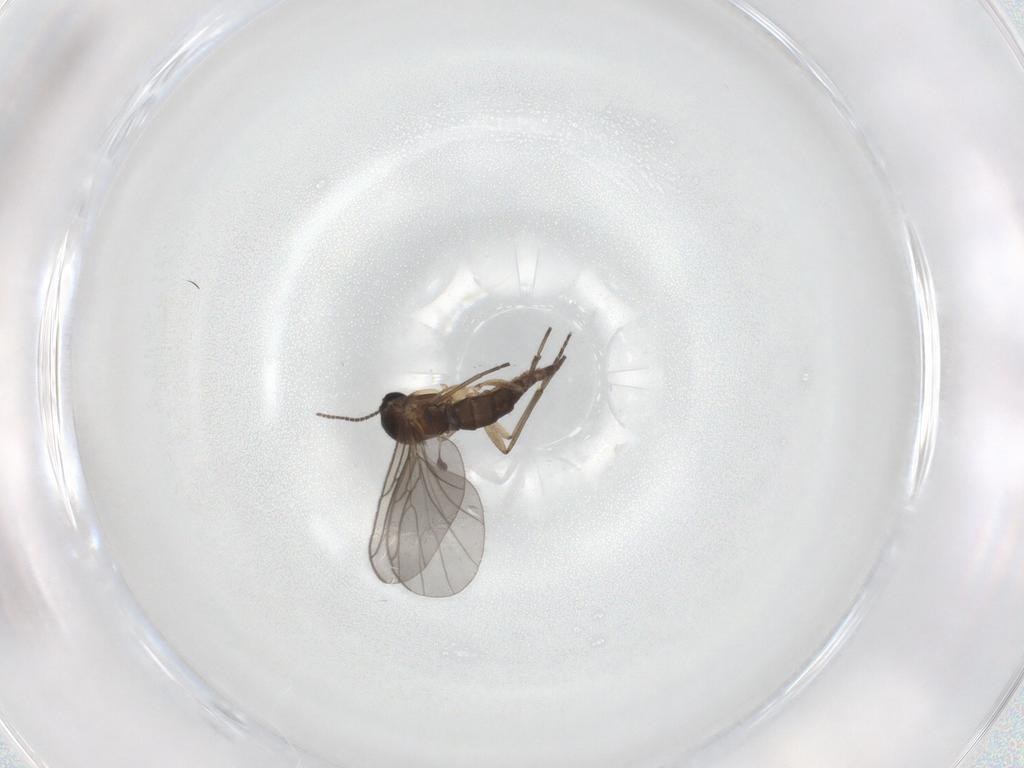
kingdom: Animalia
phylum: Arthropoda
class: Insecta
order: Diptera
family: Sciaridae
